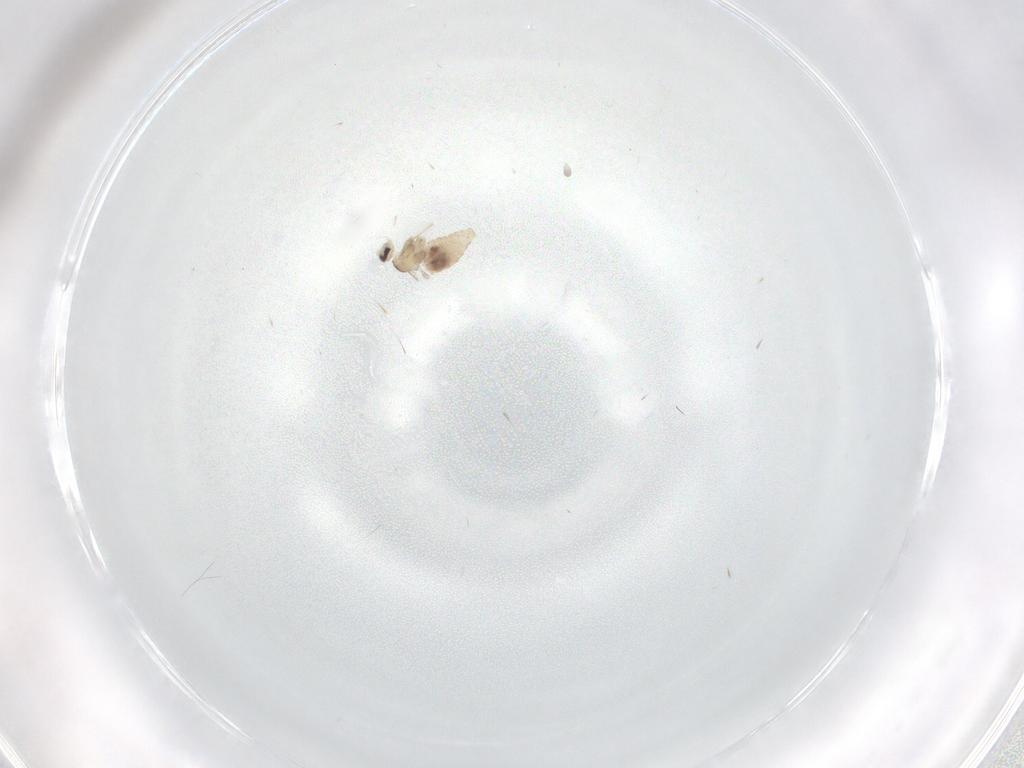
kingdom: Animalia
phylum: Arthropoda
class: Insecta
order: Diptera
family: Cecidomyiidae
